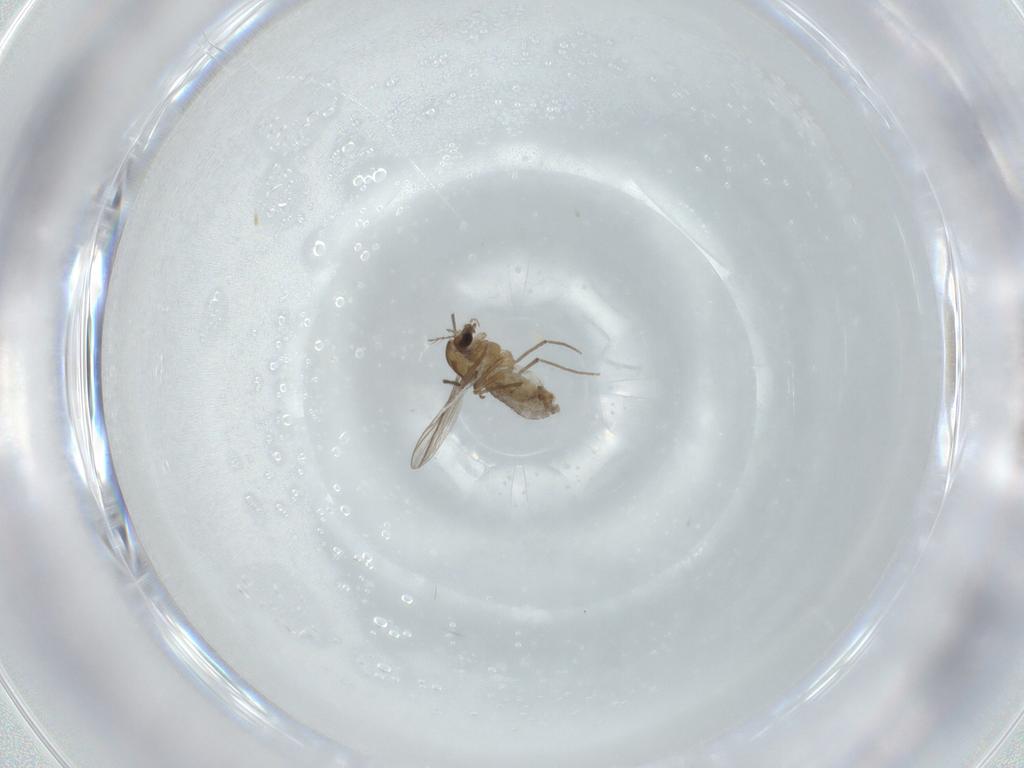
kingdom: Animalia
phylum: Arthropoda
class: Insecta
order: Diptera
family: Chironomidae
